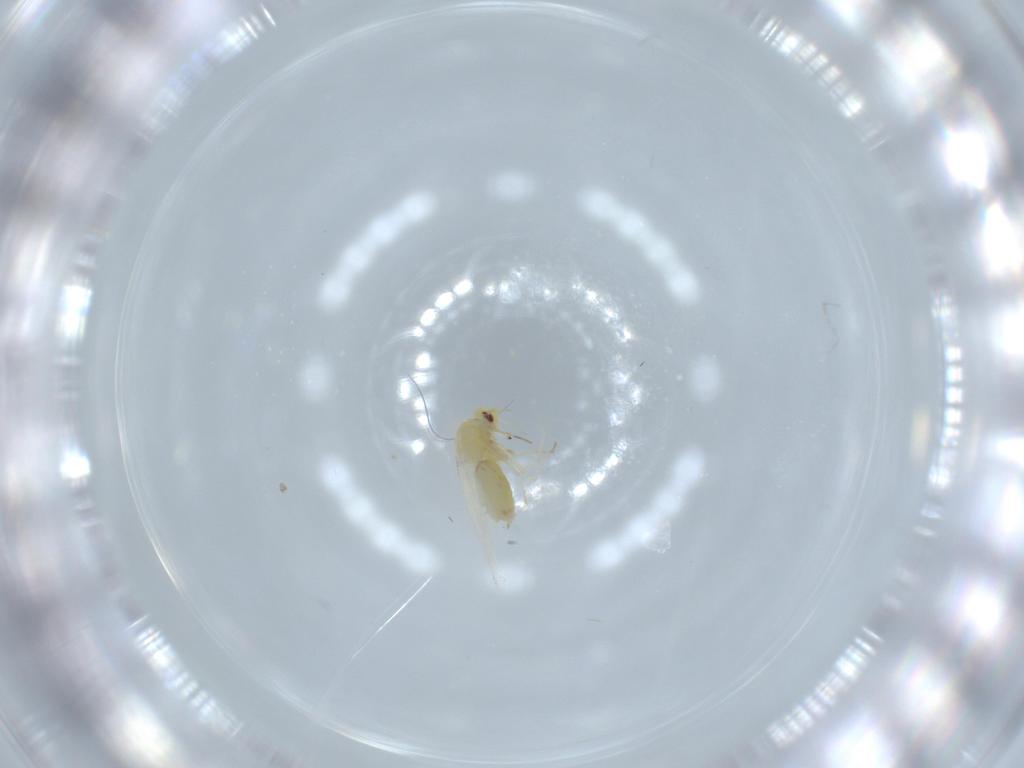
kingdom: Animalia
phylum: Arthropoda
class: Insecta
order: Hemiptera
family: Aleyrodidae
